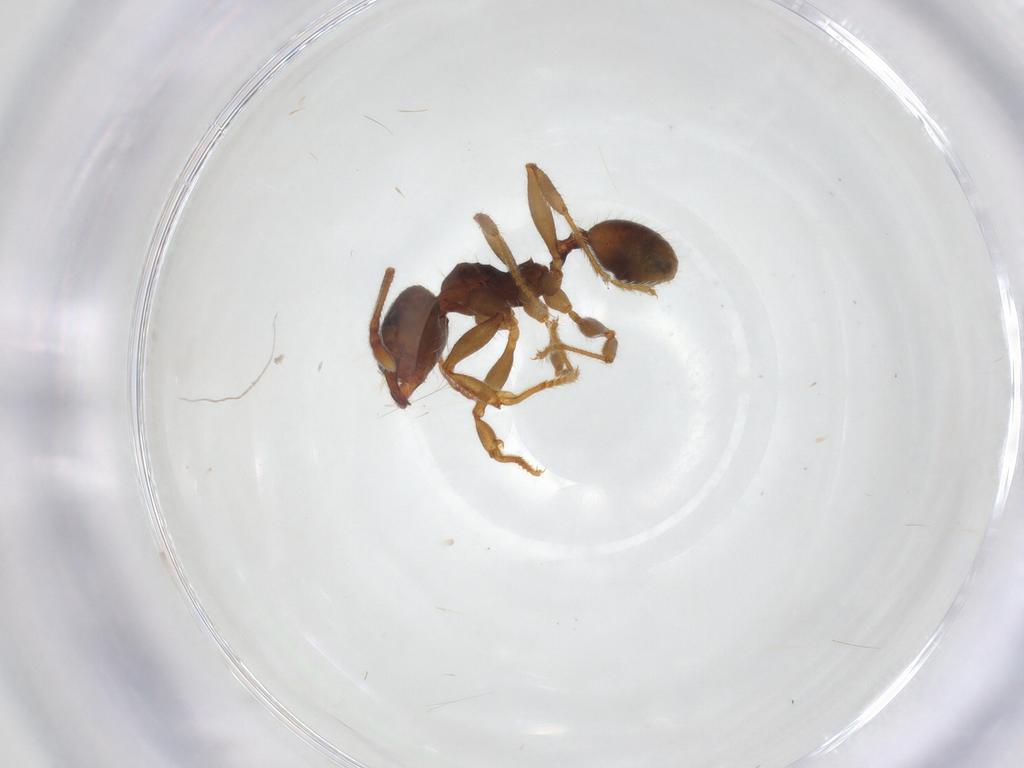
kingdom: Animalia
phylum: Arthropoda
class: Insecta
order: Hymenoptera
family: Formicidae
